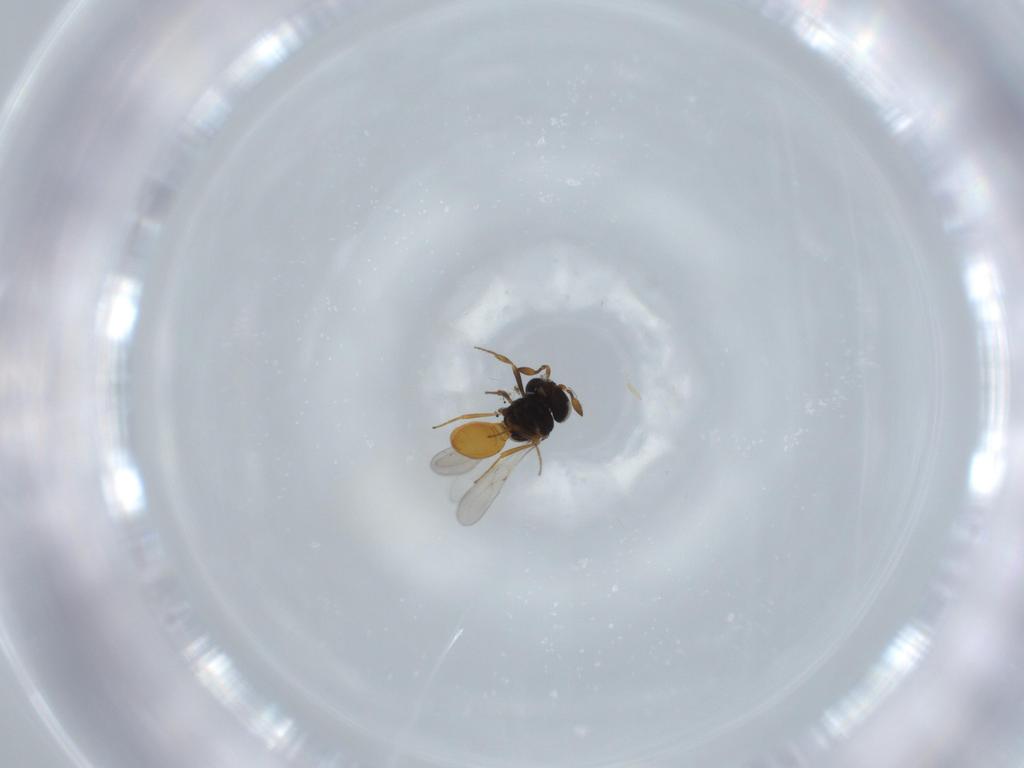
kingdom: Animalia
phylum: Arthropoda
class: Insecta
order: Hymenoptera
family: Scelionidae
